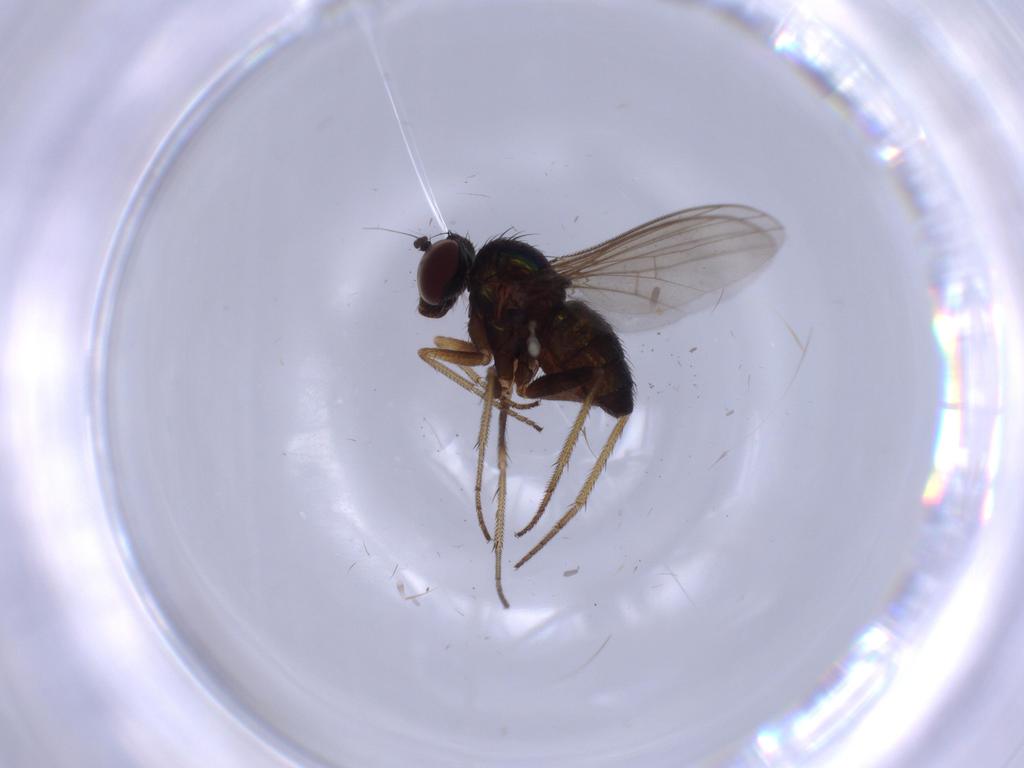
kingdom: Animalia
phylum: Arthropoda
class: Insecta
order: Diptera
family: Dolichopodidae
